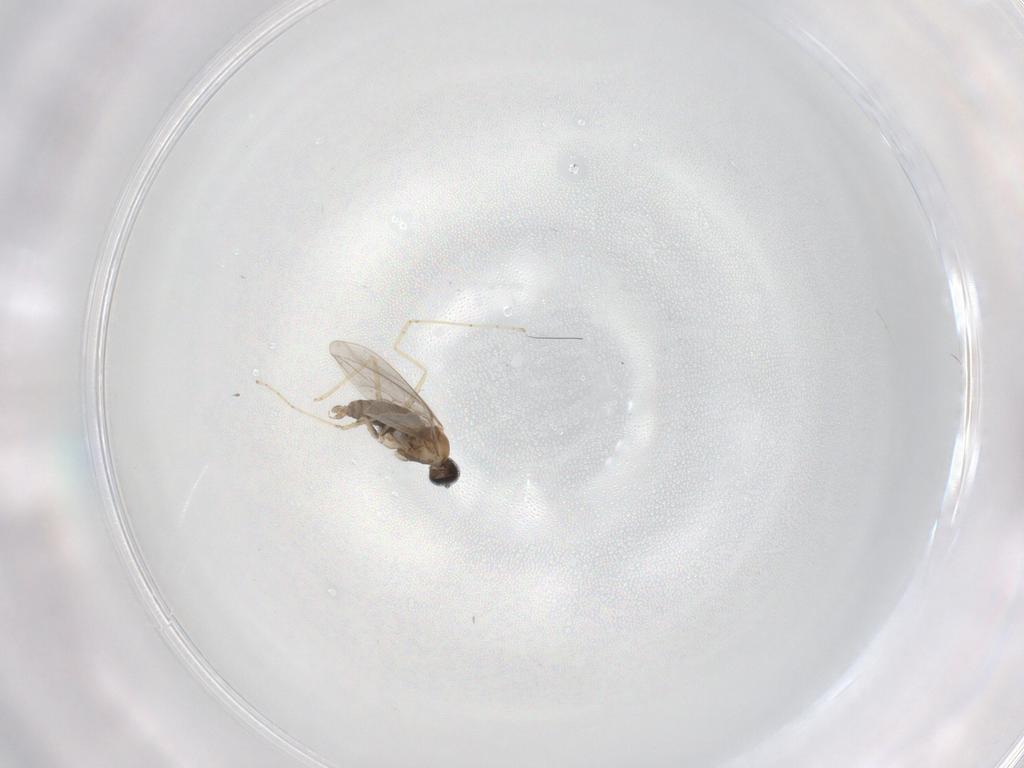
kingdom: Animalia
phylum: Arthropoda
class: Insecta
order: Diptera
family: Cecidomyiidae
